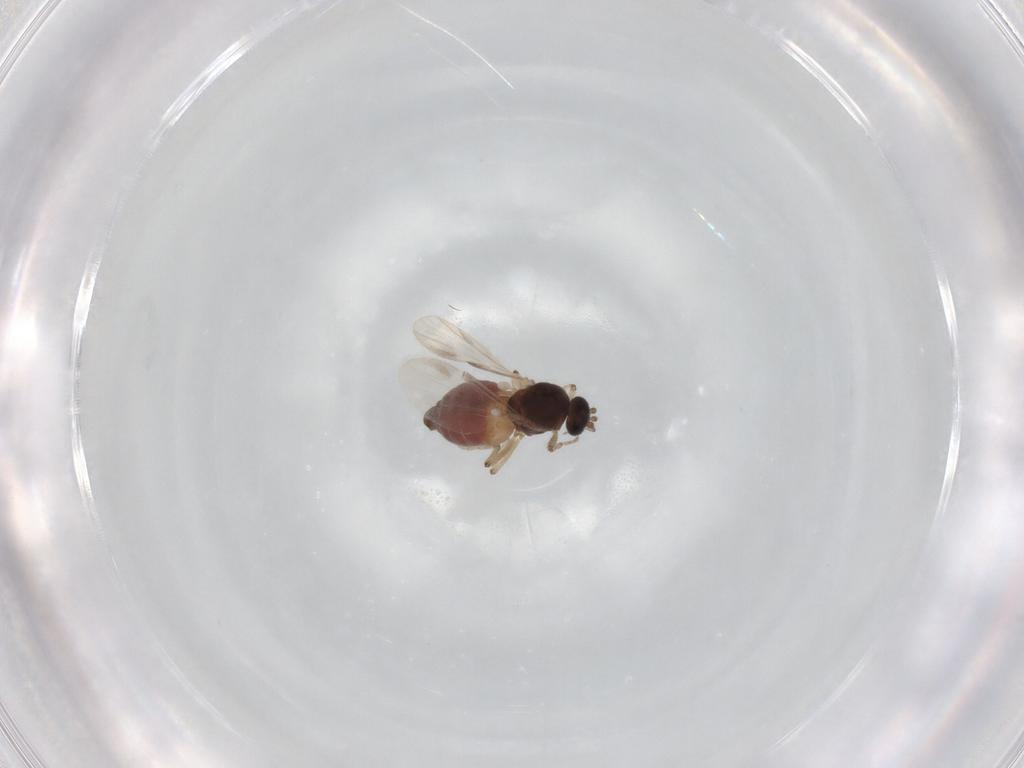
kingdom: Animalia
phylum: Arthropoda
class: Insecta
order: Diptera
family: Ceratopogonidae
